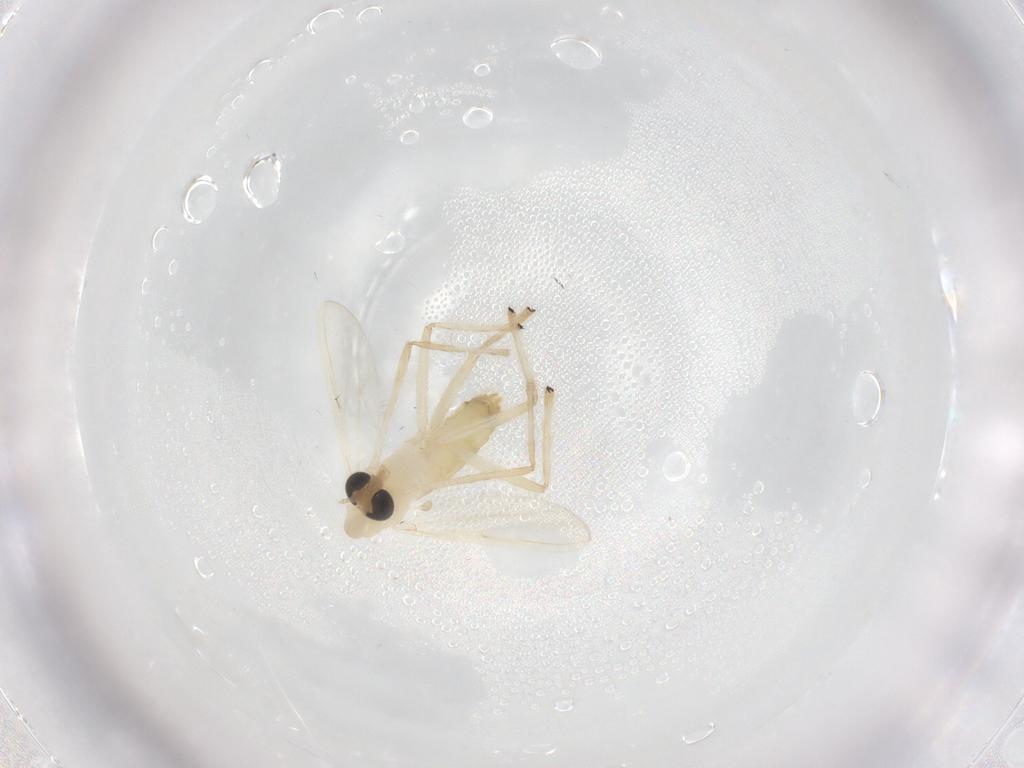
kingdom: Animalia
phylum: Arthropoda
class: Insecta
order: Diptera
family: Chironomidae
